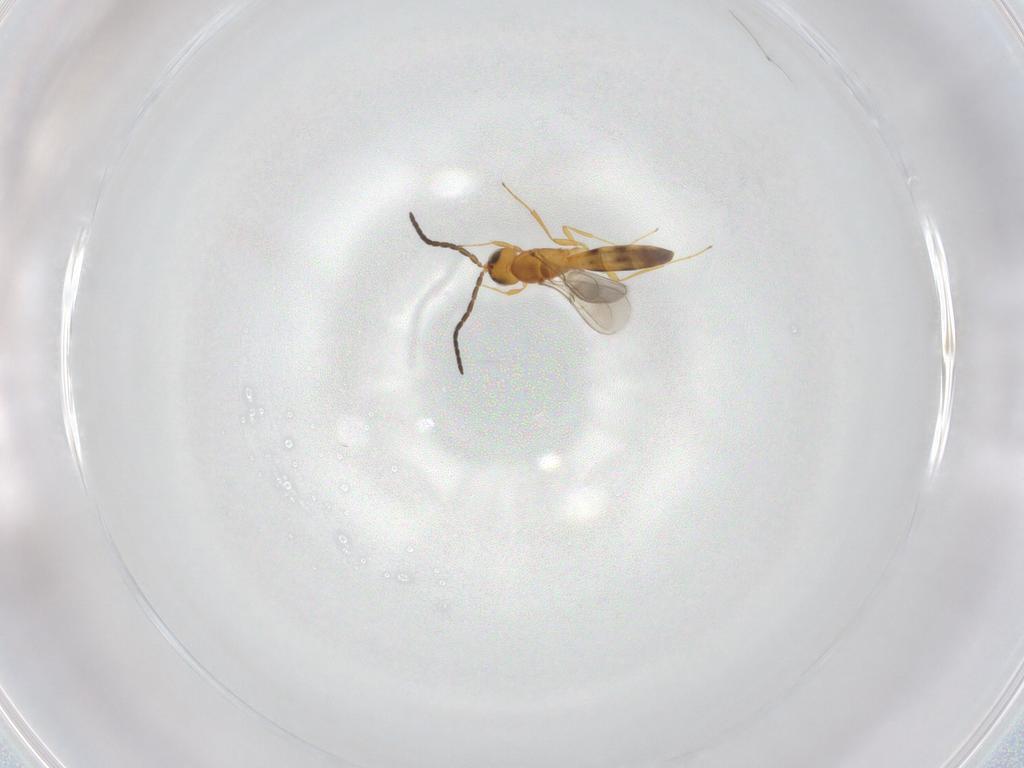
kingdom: Animalia
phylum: Arthropoda
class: Insecta
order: Hymenoptera
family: Scelionidae
